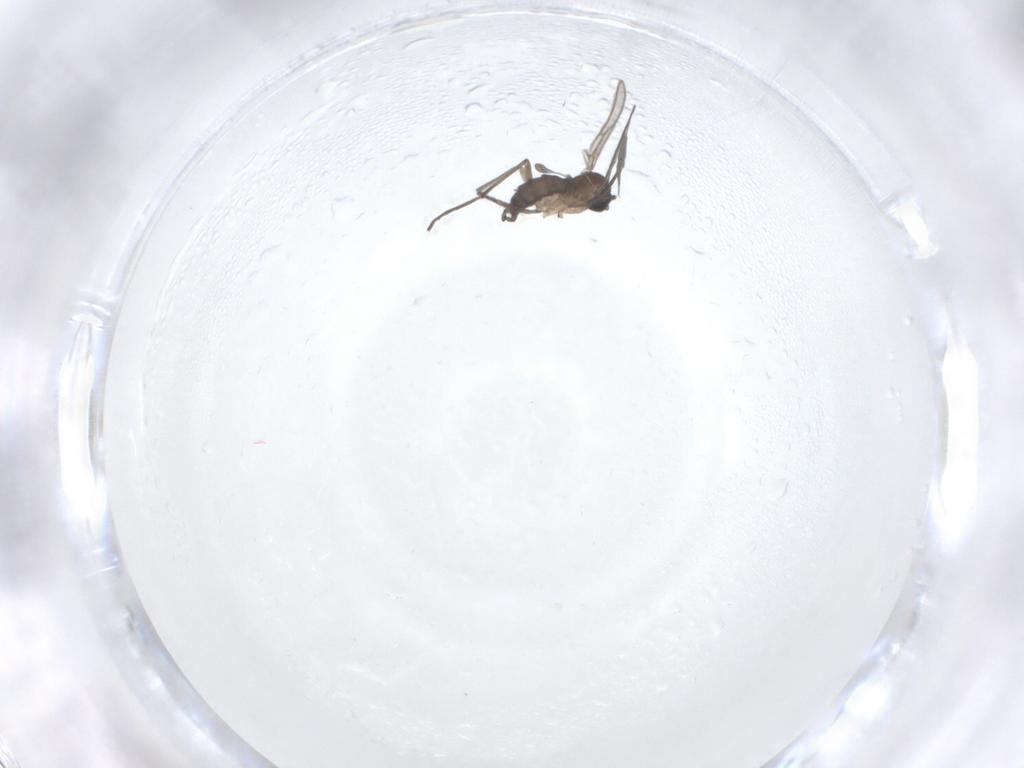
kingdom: Animalia
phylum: Arthropoda
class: Insecta
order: Diptera
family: Sciaridae
